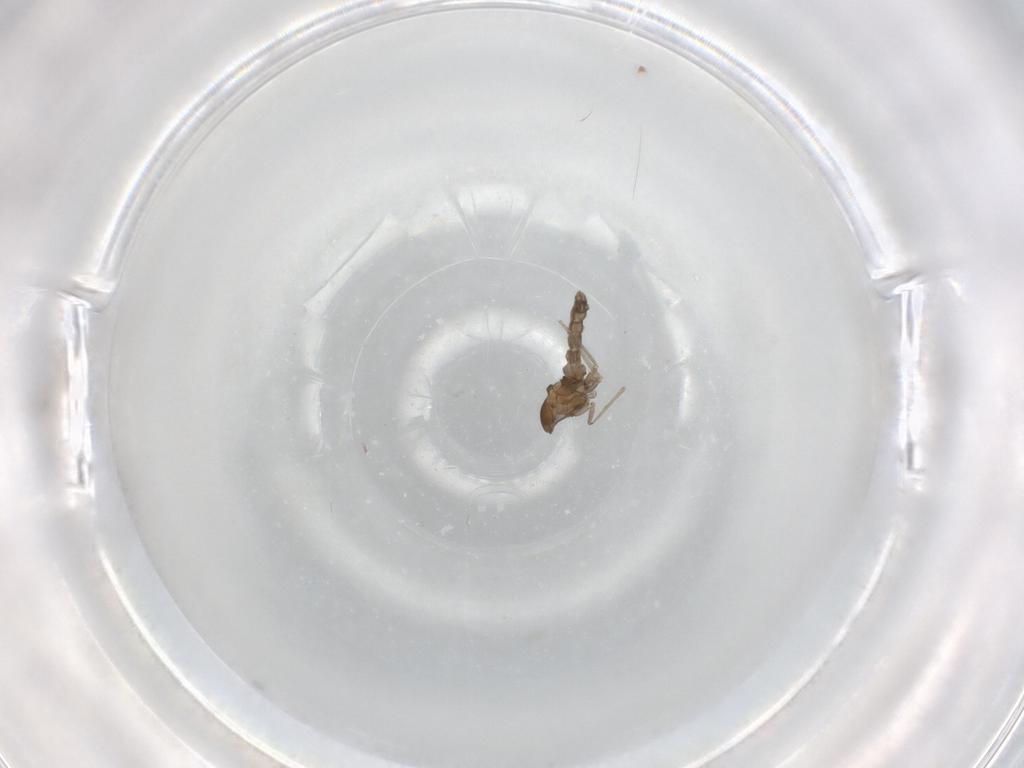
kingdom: Animalia
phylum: Arthropoda
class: Insecta
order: Diptera
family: Cecidomyiidae
